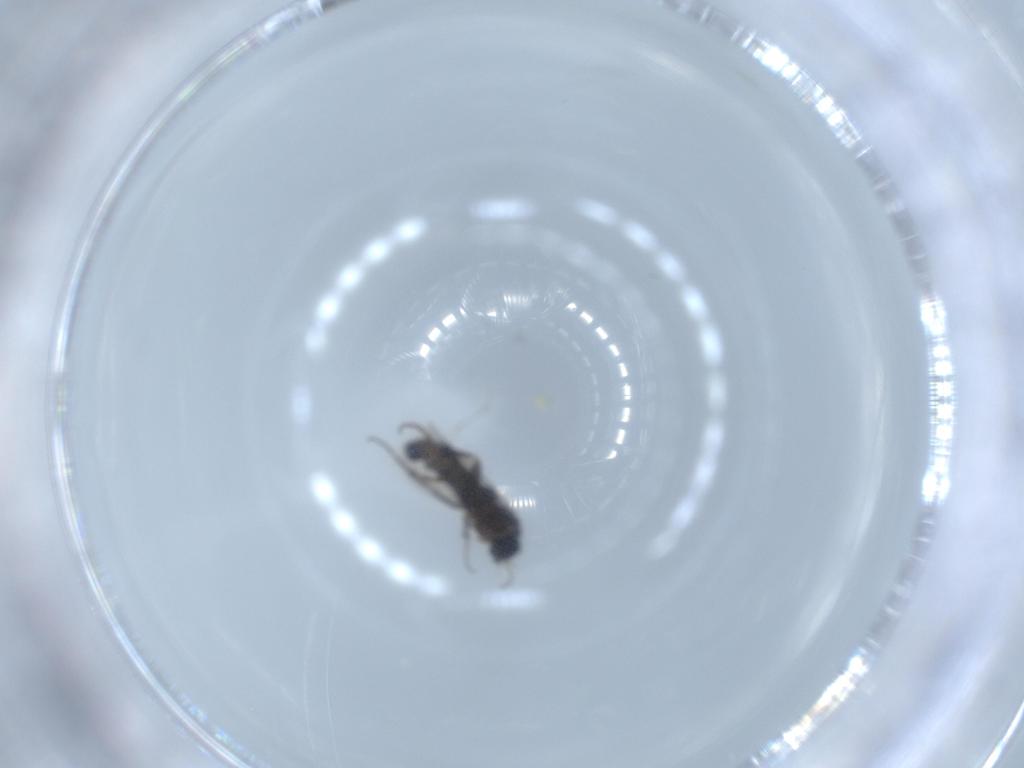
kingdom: Animalia
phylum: Arthropoda
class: Insecta
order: Diptera
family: Phoridae
